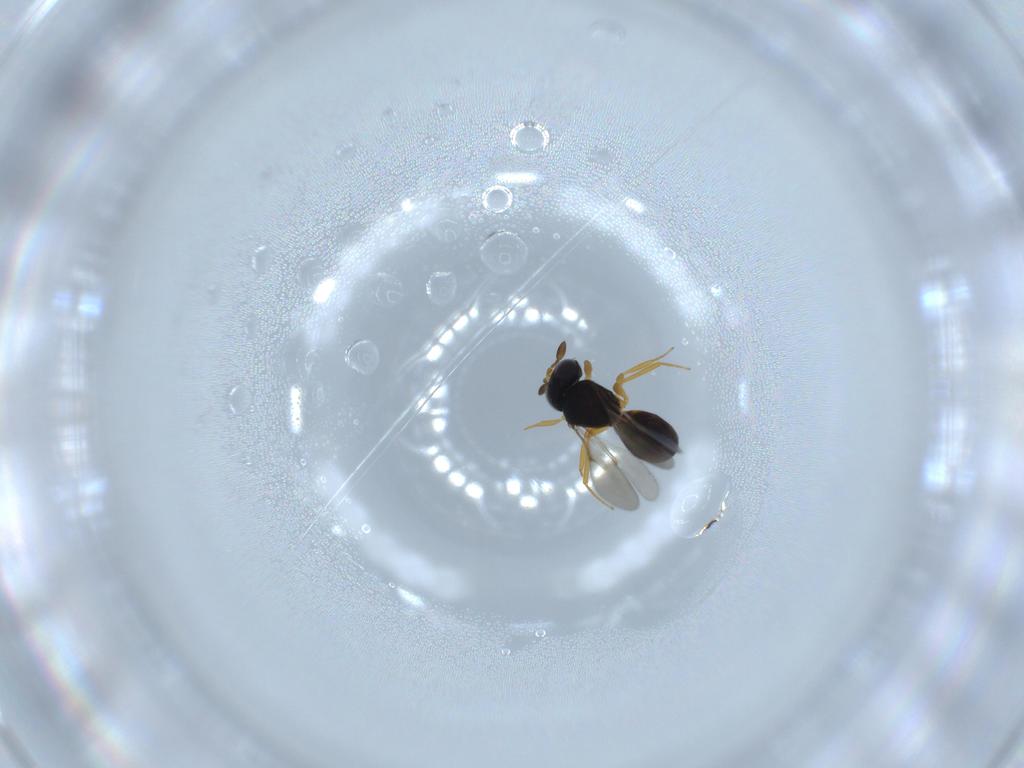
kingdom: Animalia
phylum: Arthropoda
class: Insecta
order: Hymenoptera
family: Scelionidae
